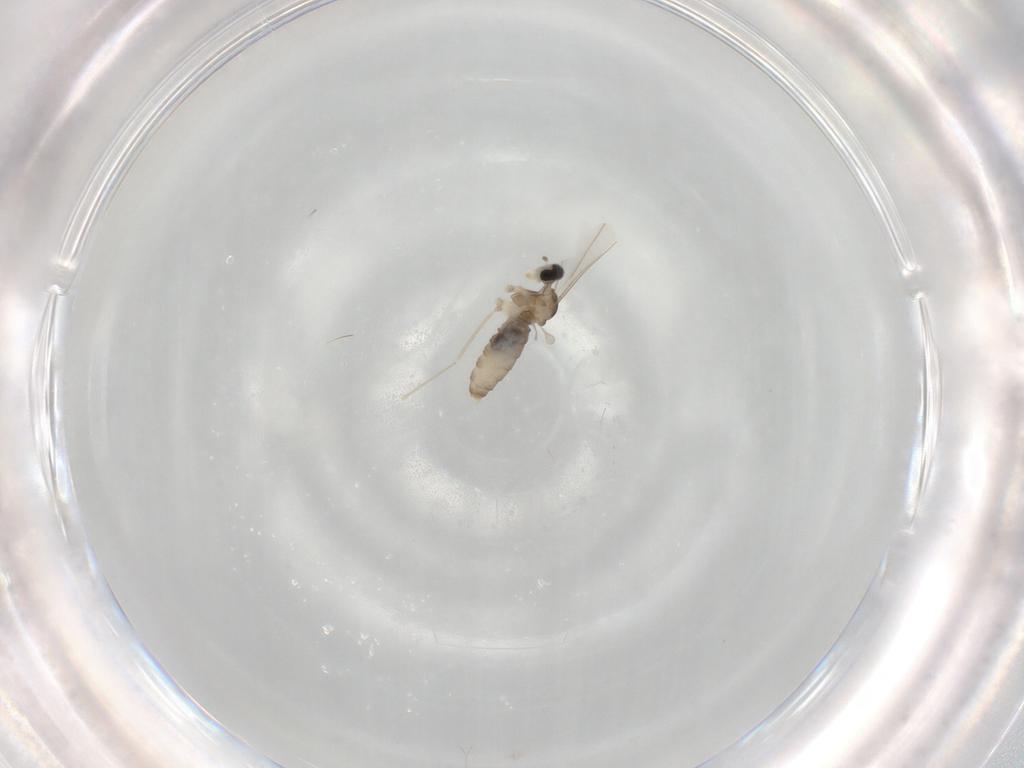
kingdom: Animalia
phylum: Arthropoda
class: Insecta
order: Diptera
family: Cecidomyiidae
